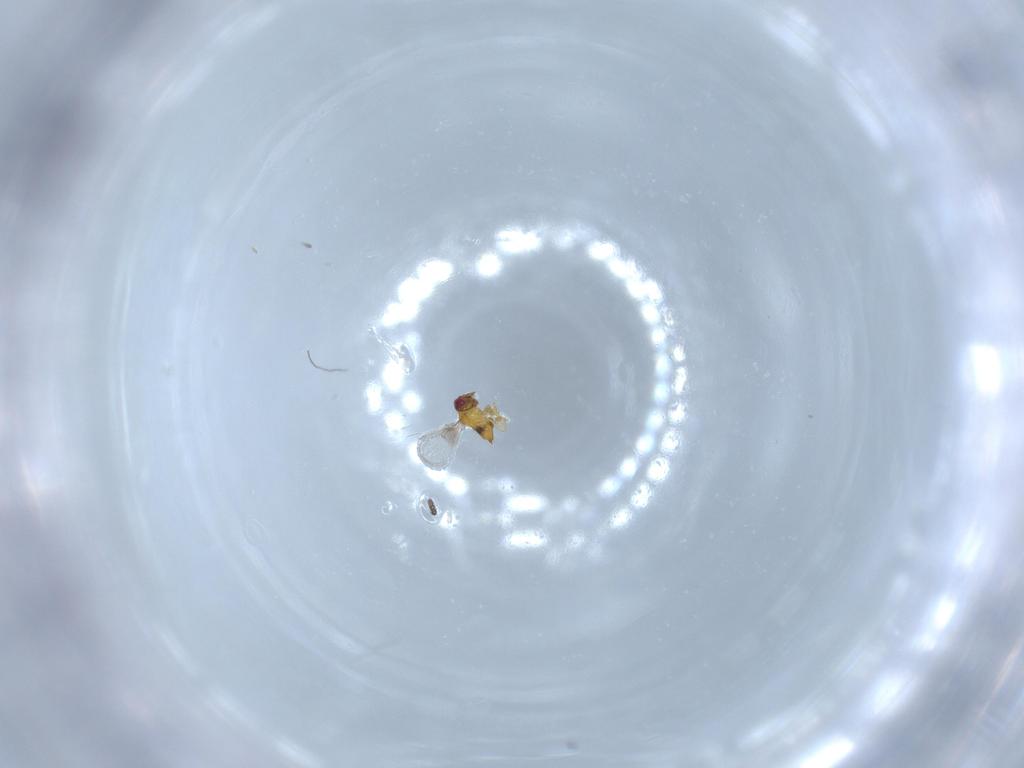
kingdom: Animalia
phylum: Arthropoda
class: Insecta
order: Hymenoptera
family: Trichogrammatidae
